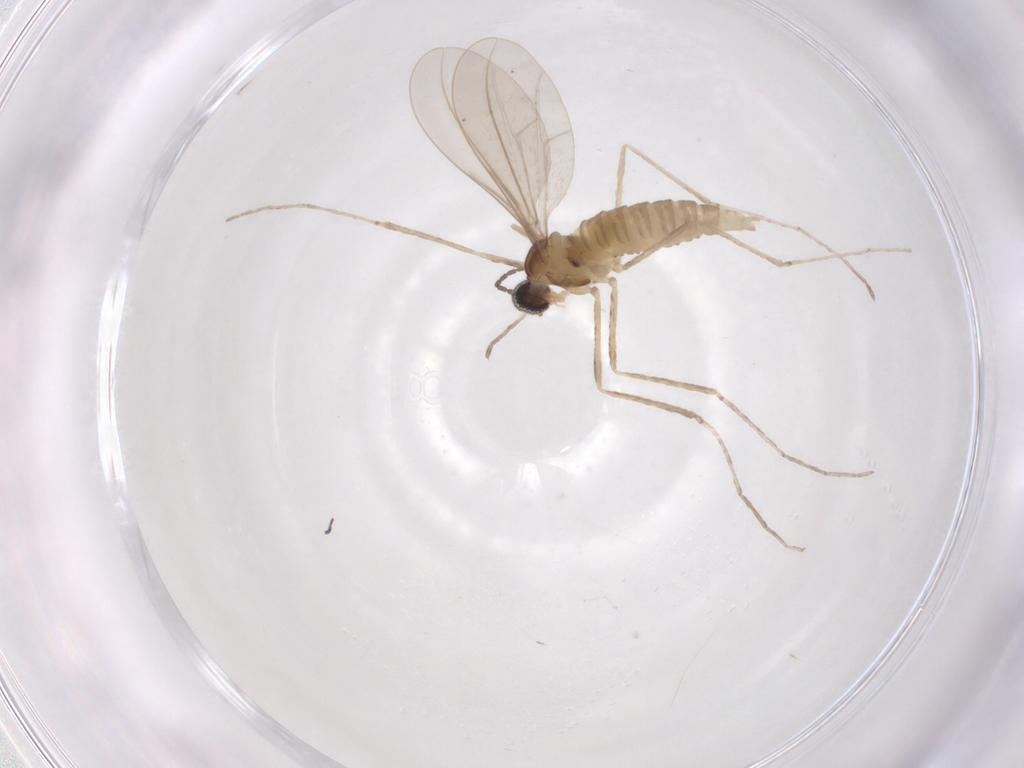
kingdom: Animalia
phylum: Arthropoda
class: Insecta
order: Diptera
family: Cecidomyiidae
